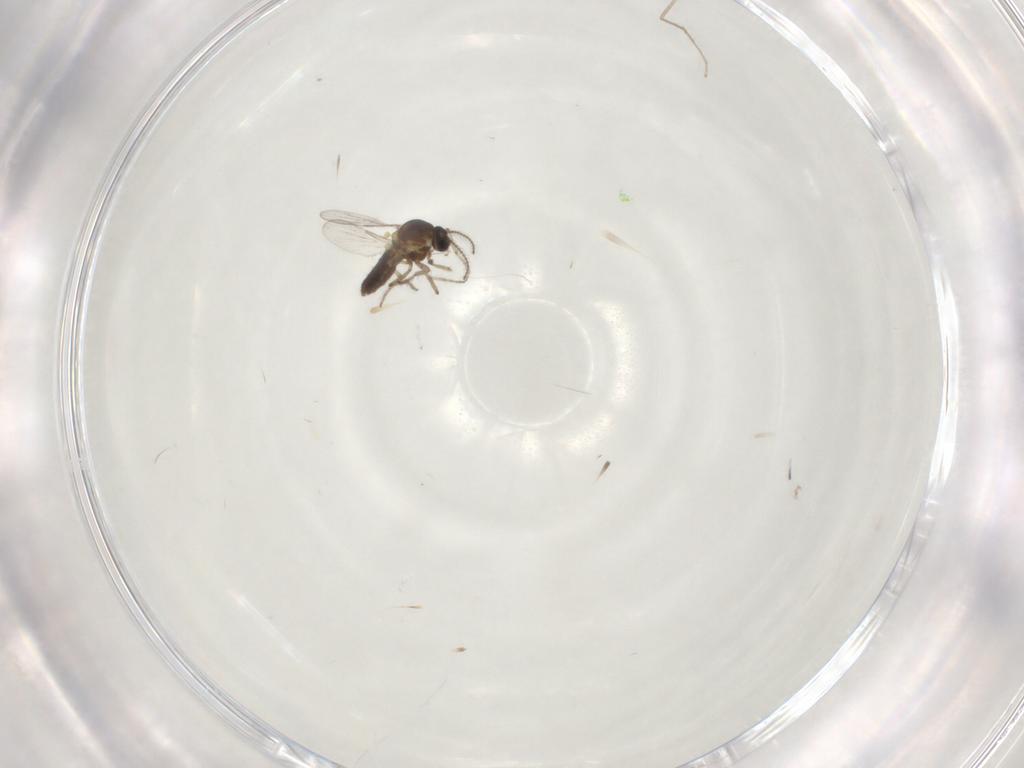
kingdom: Animalia
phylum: Arthropoda
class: Insecta
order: Diptera
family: Ceratopogonidae
